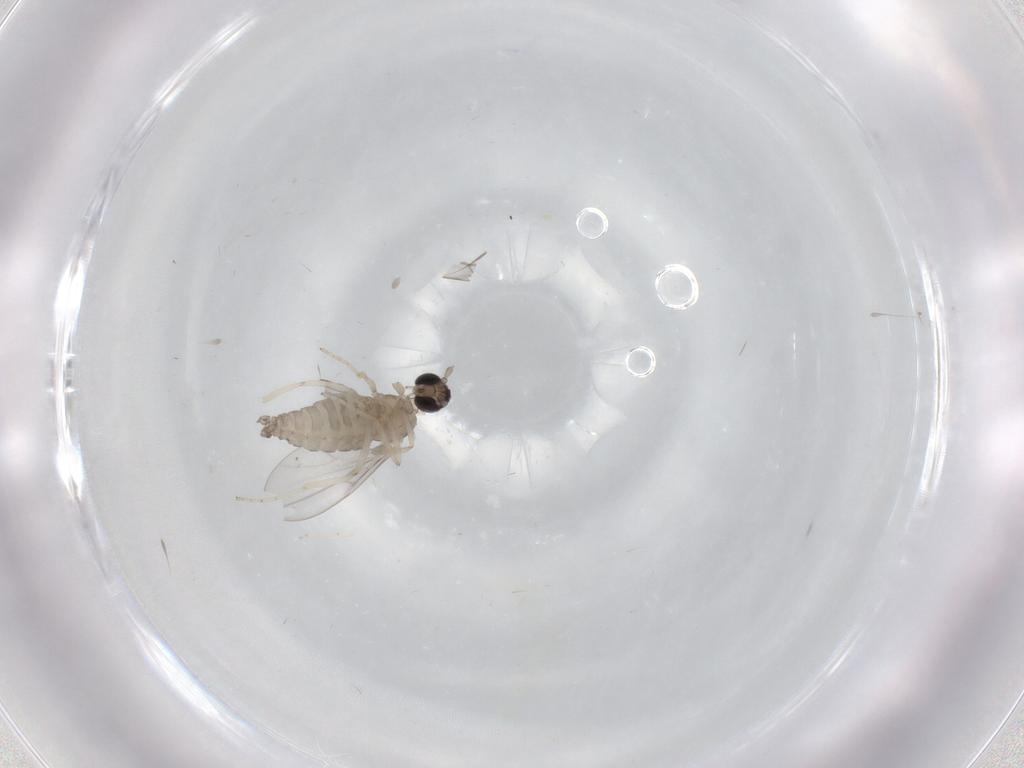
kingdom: Animalia
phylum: Arthropoda
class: Insecta
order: Diptera
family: Cecidomyiidae
